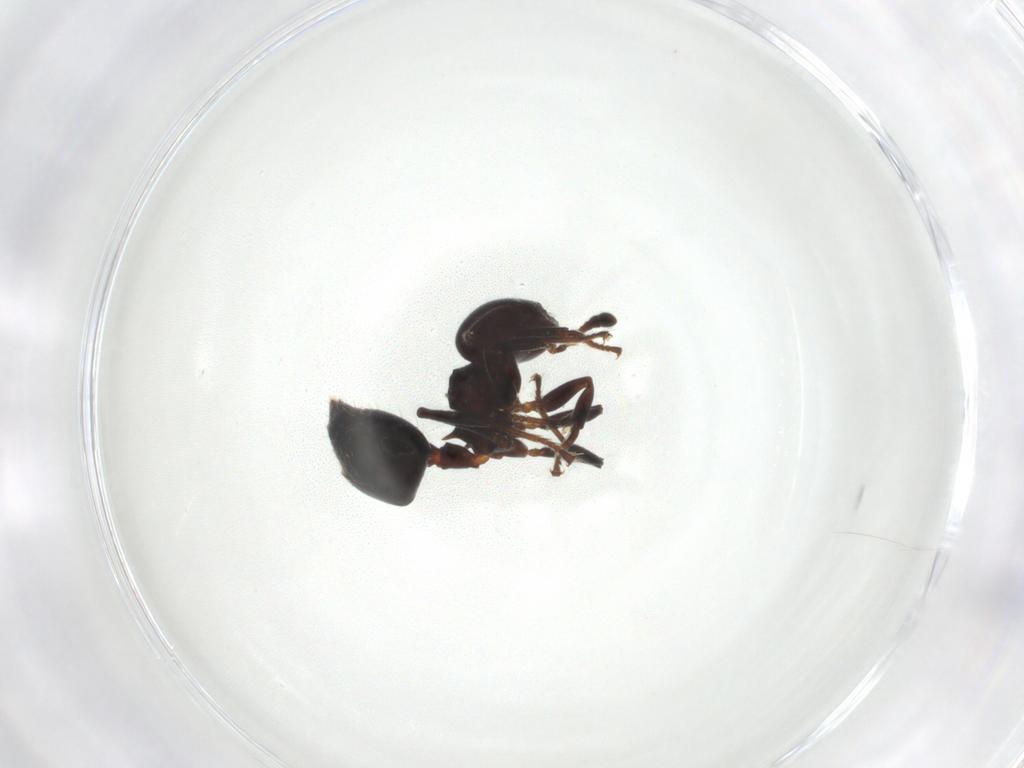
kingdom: Animalia
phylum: Arthropoda
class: Insecta
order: Hymenoptera
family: Formicidae
